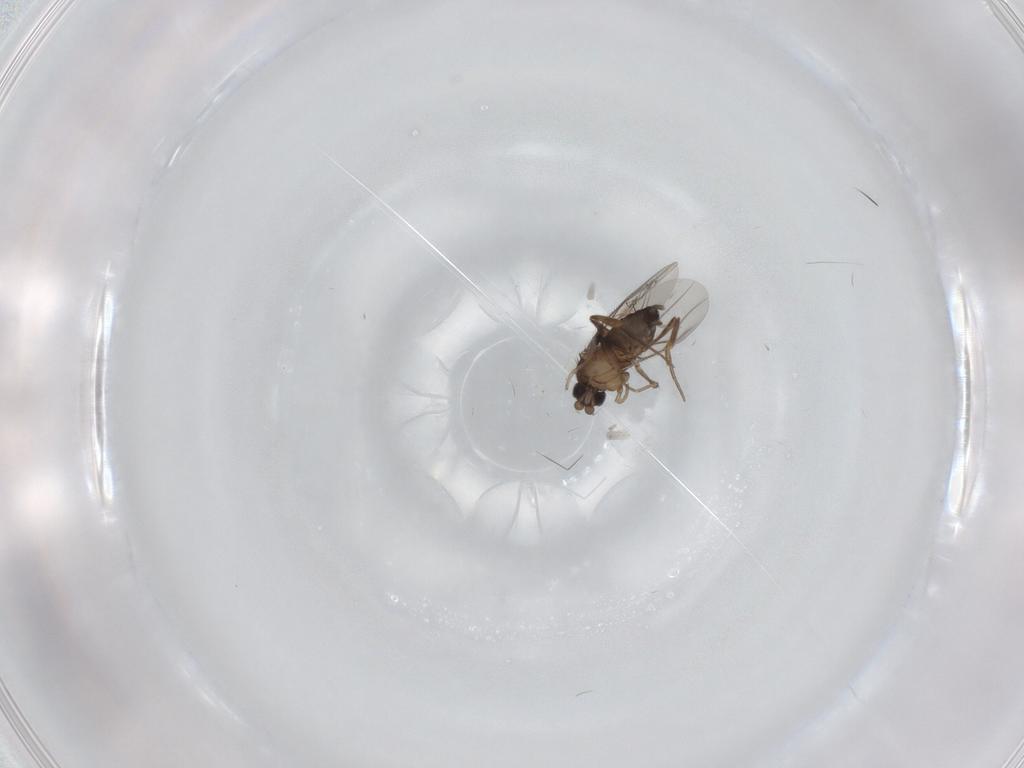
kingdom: Animalia
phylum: Arthropoda
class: Insecta
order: Diptera
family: Phoridae
